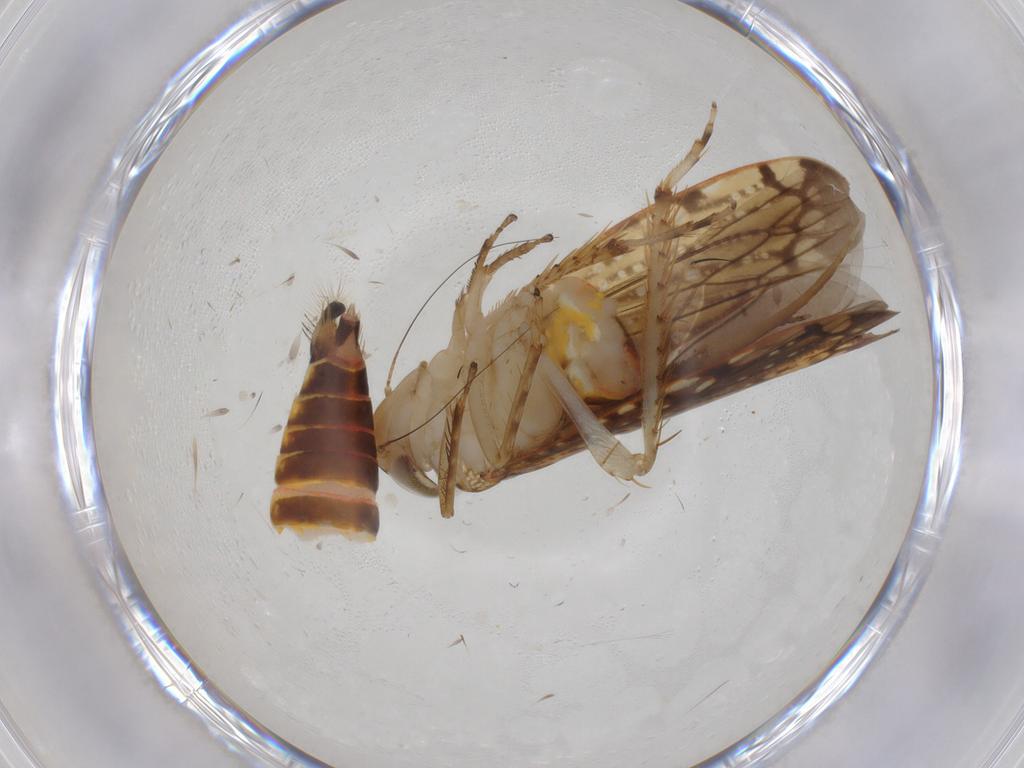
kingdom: Animalia
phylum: Arthropoda
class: Insecta
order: Hemiptera
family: Cicadellidae
